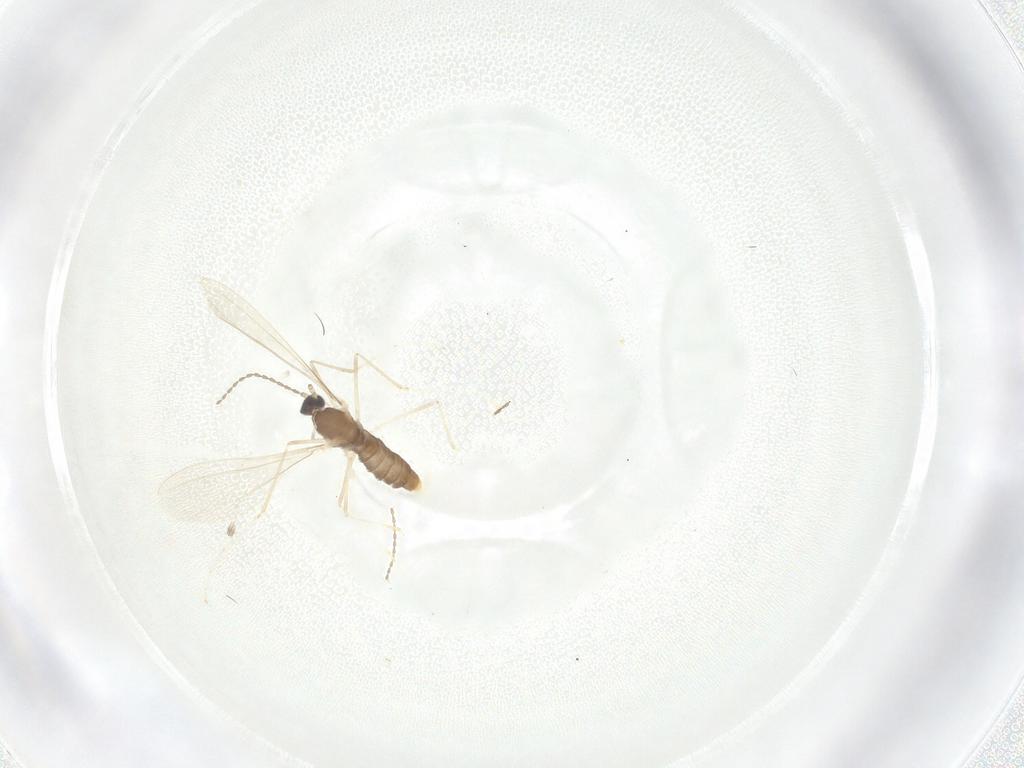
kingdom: Animalia
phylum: Arthropoda
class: Insecta
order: Diptera
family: Cecidomyiidae
